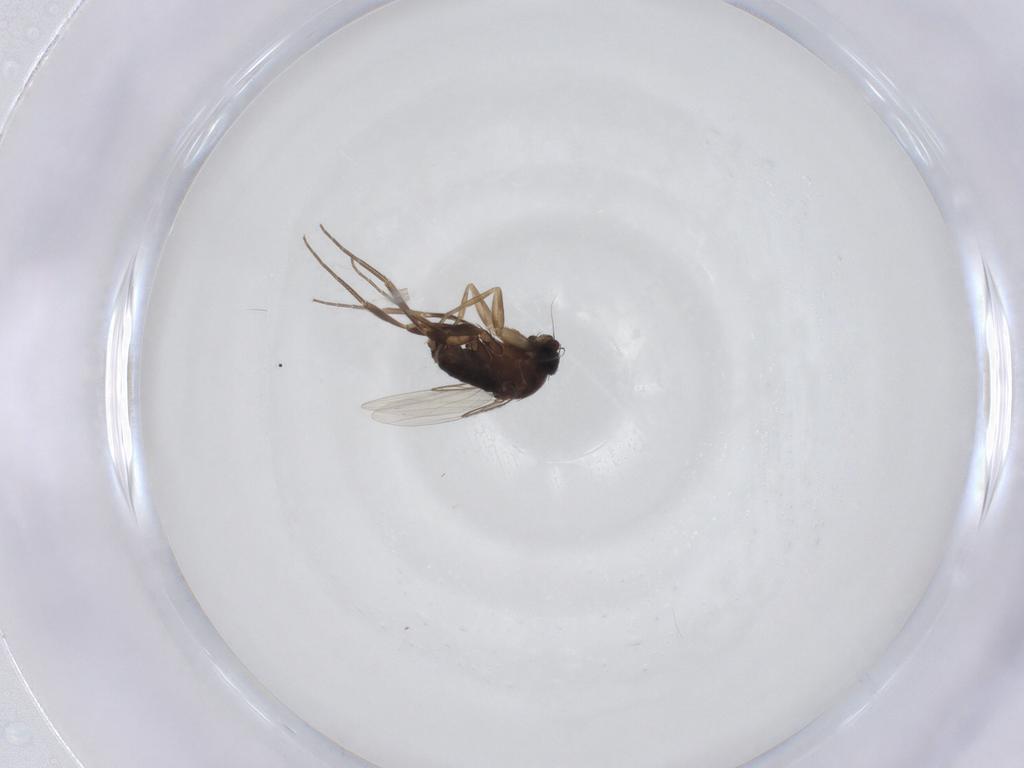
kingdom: Animalia
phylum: Arthropoda
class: Insecta
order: Diptera
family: Phoridae
